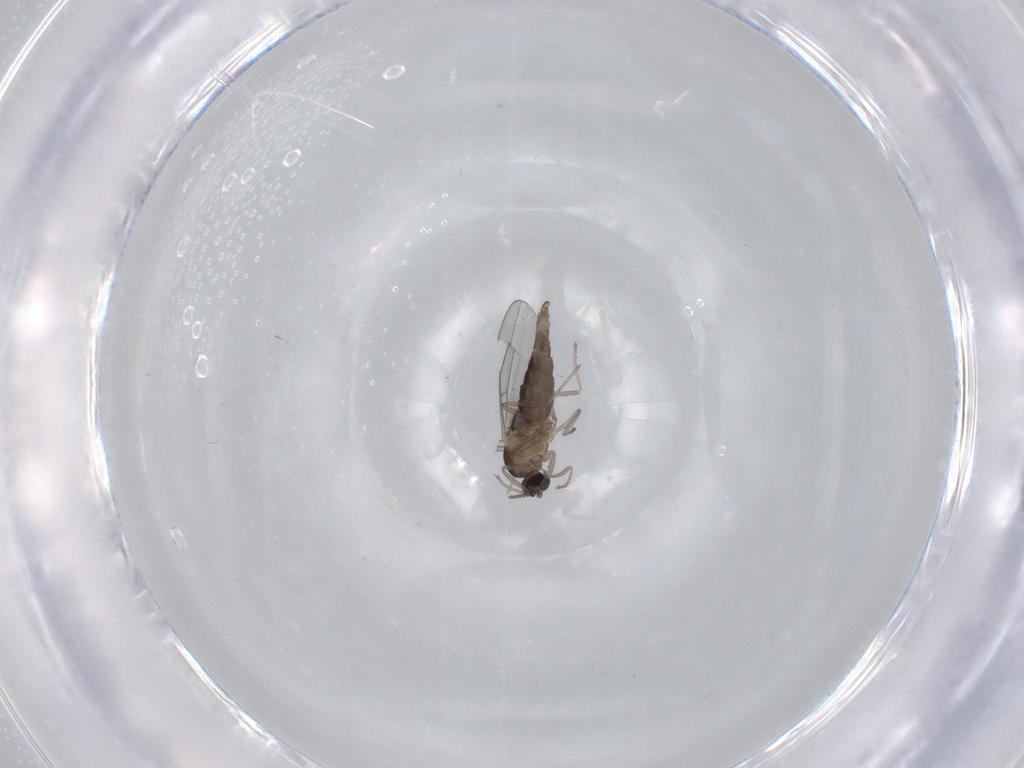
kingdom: Animalia
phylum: Arthropoda
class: Insecta
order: Diptera
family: Cecidomyiidae
